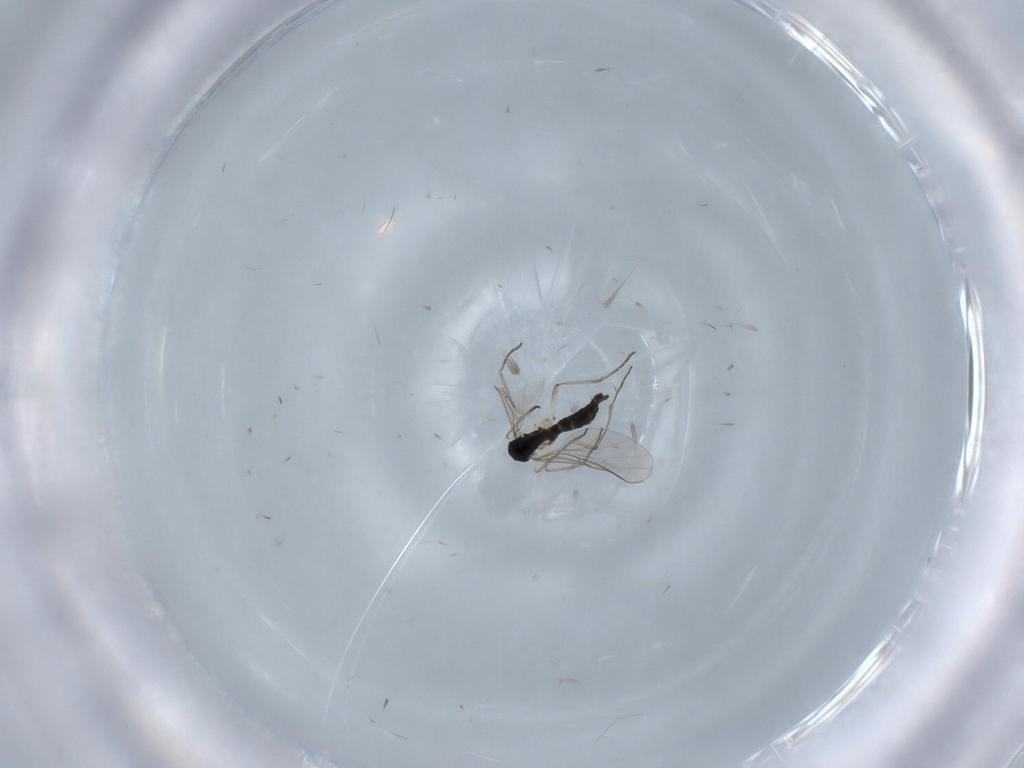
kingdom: Animalia
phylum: Arthropoda
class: Insecta
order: Diptera
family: Sciaridae
